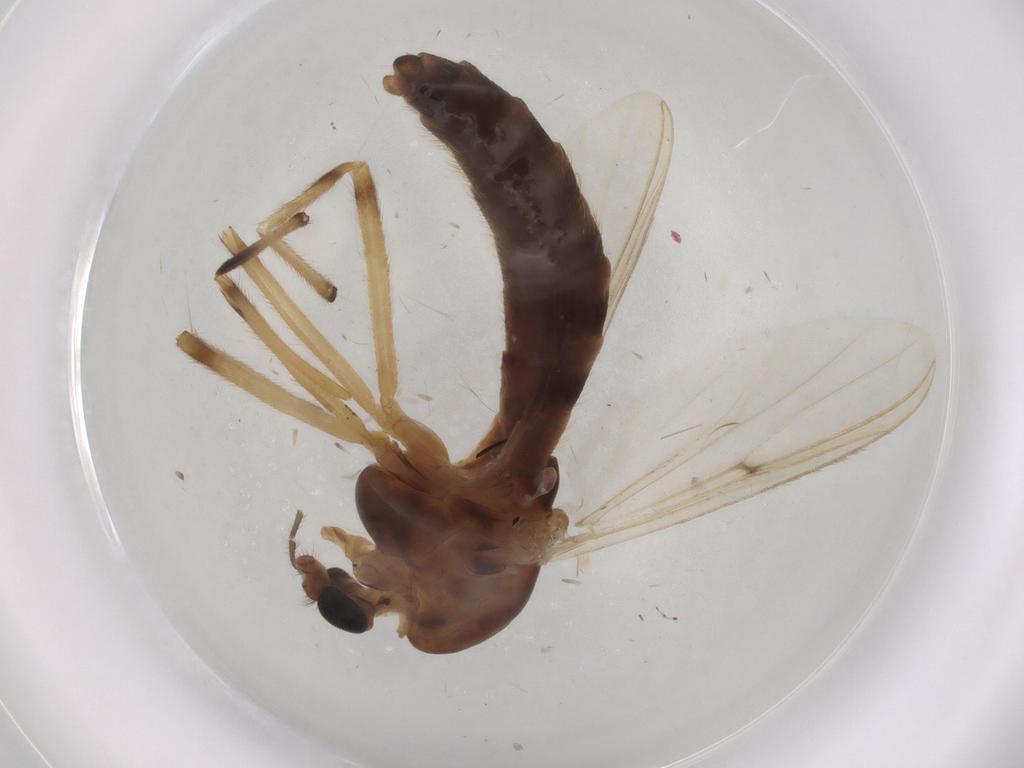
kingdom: Animalia
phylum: Arthropoda
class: Insecta
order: Diptera
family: Chironomidae
